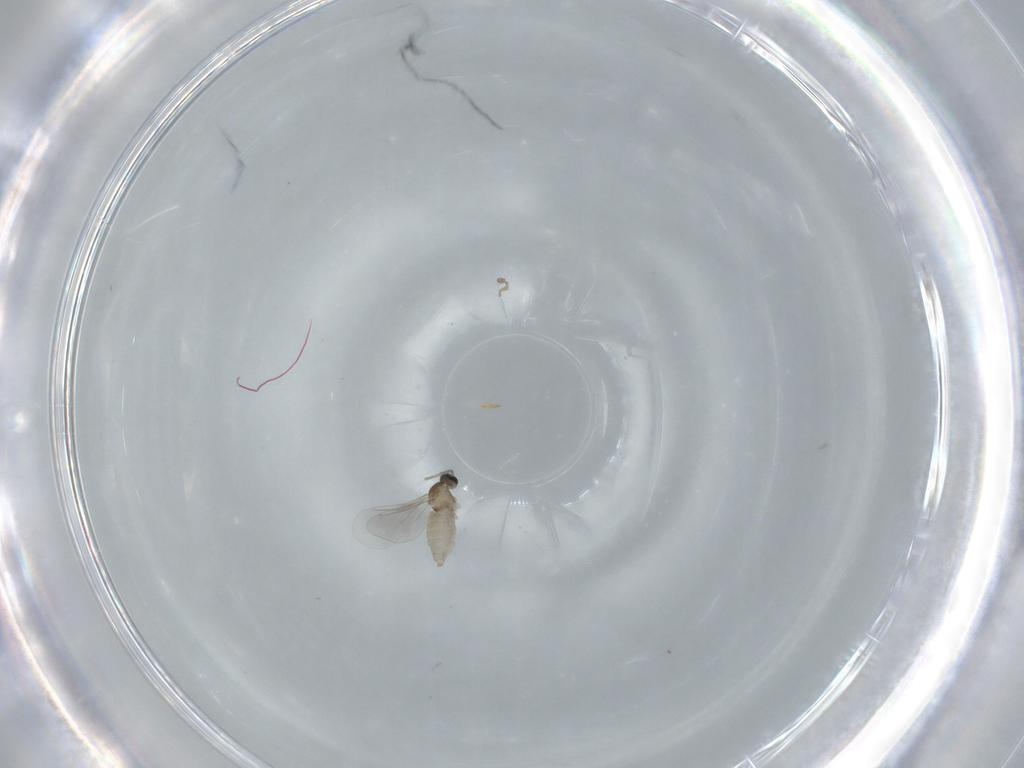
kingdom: Animalia
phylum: Arthropoda
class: Insecta
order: Diptera
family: Cecidomyiidae
